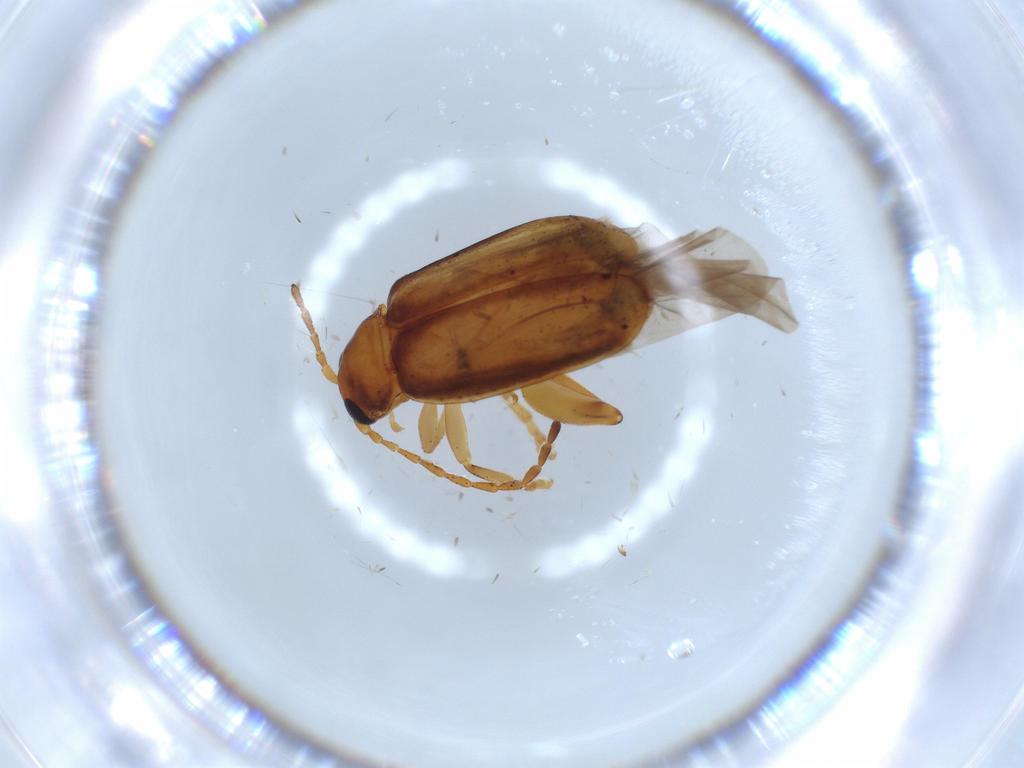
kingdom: Animalia
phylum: Arthropoda
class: Insecta
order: Coleoptera
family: Chrysomelidae
